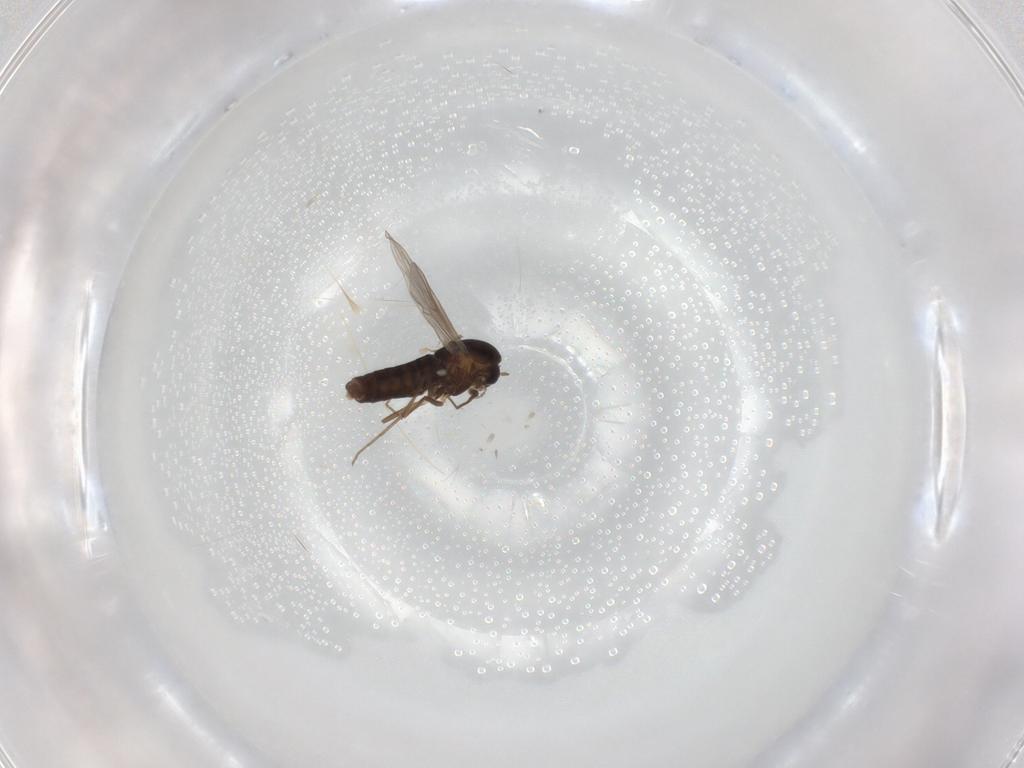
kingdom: Animalia
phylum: Arthropoda
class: Insecta
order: Diptera
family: Chironomidae
